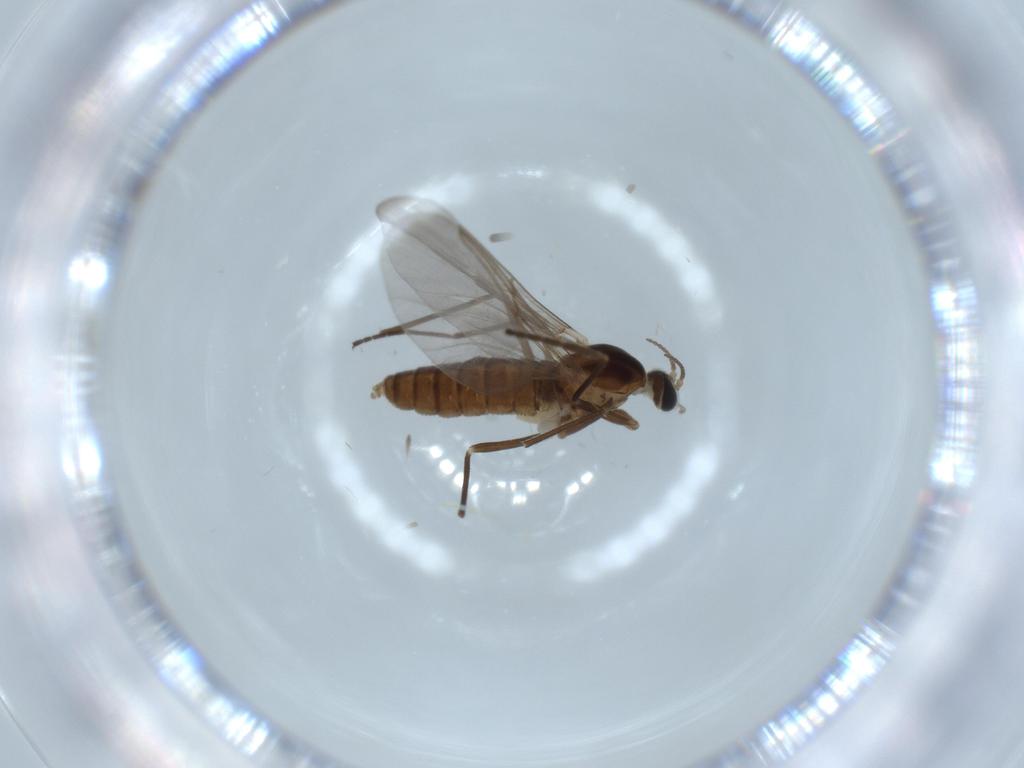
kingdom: Animalia
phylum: Arthropoda
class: Insecta
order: Diptera
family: Cecidomyiidae
